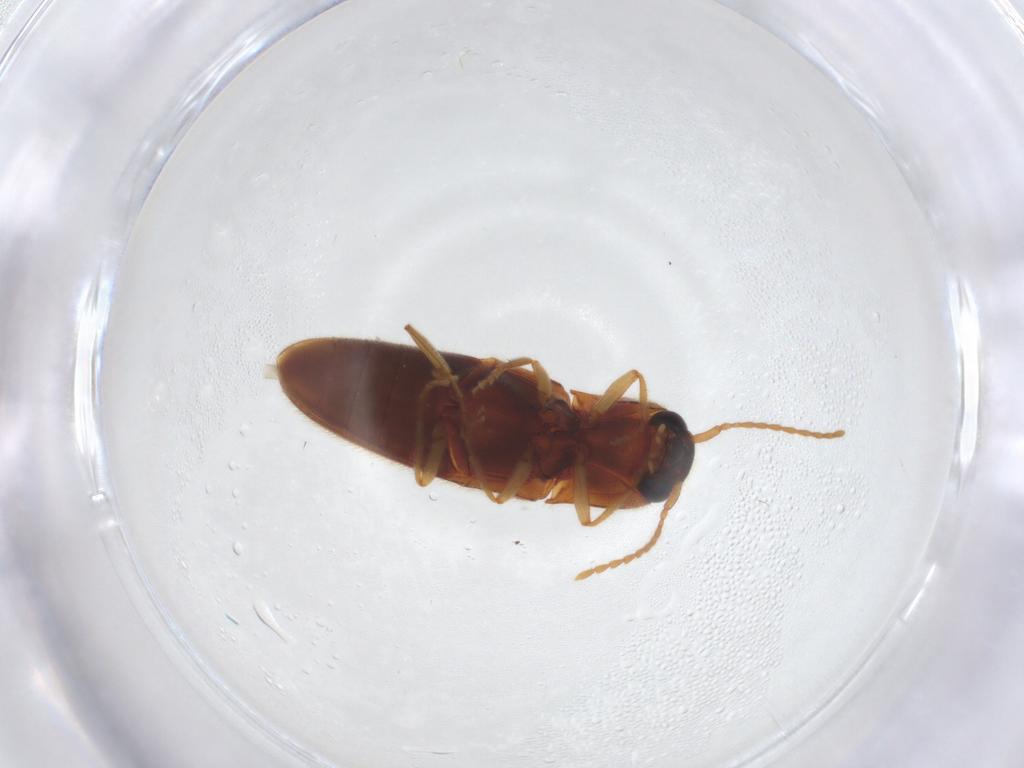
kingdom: Animalia
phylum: Arthropoda
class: Insecta
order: Coleoptera
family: Elateridae
